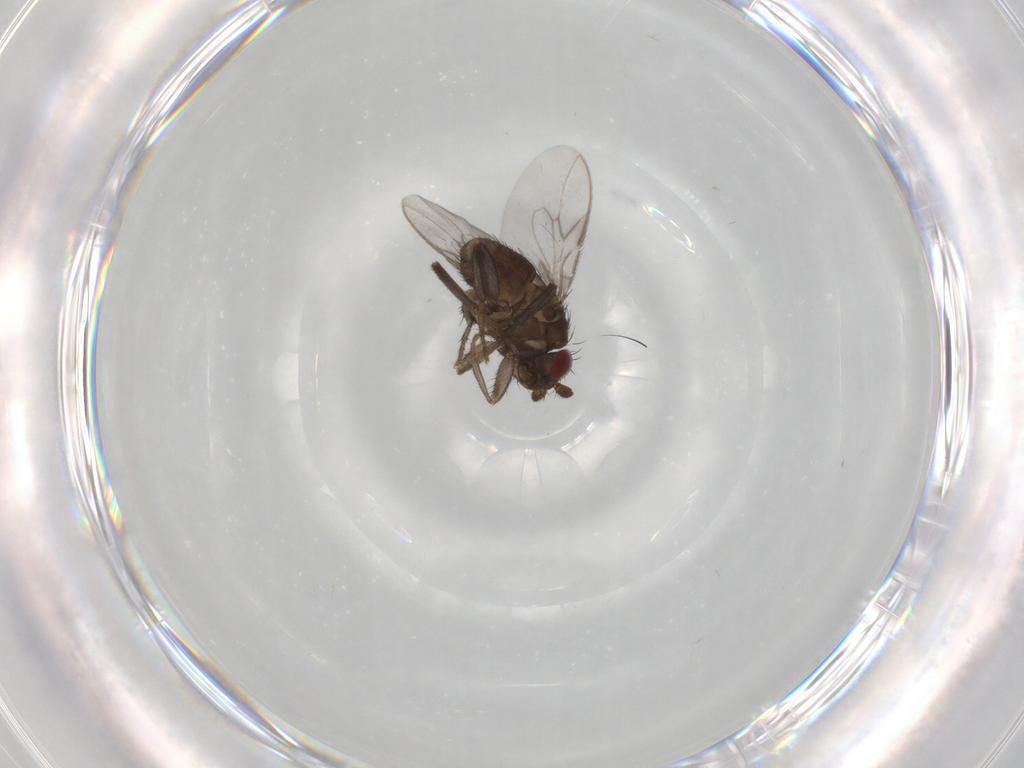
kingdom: Animalia
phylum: Arthropoda
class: Insecta
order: Diptera
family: Sphaeroceridae
